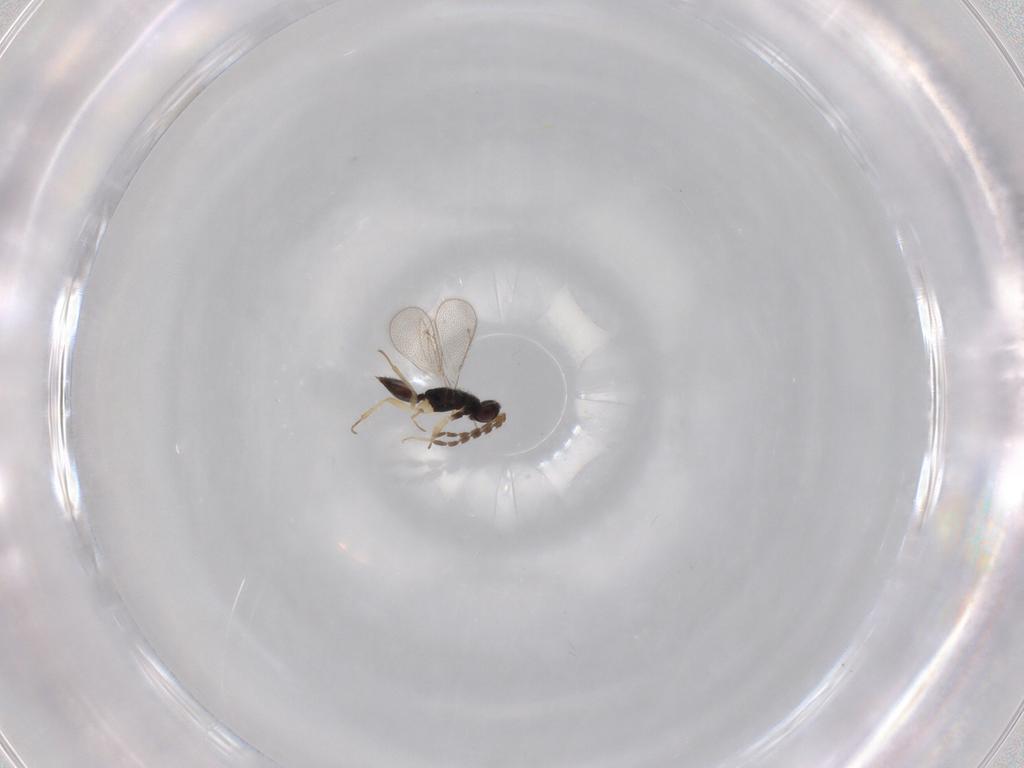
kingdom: Animalia
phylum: Arthropoda
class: Insecta
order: Hymenoptera
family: Eulophidae
